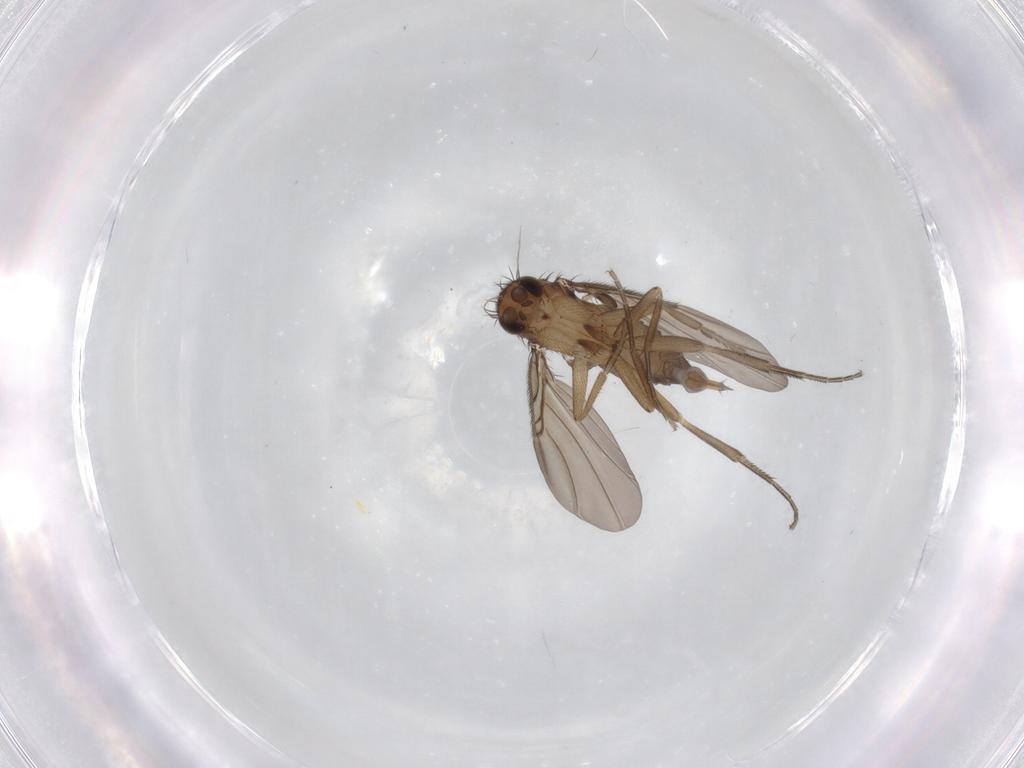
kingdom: Animalia
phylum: Arthropoda
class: Insecta
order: Diptera
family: Phoridae
